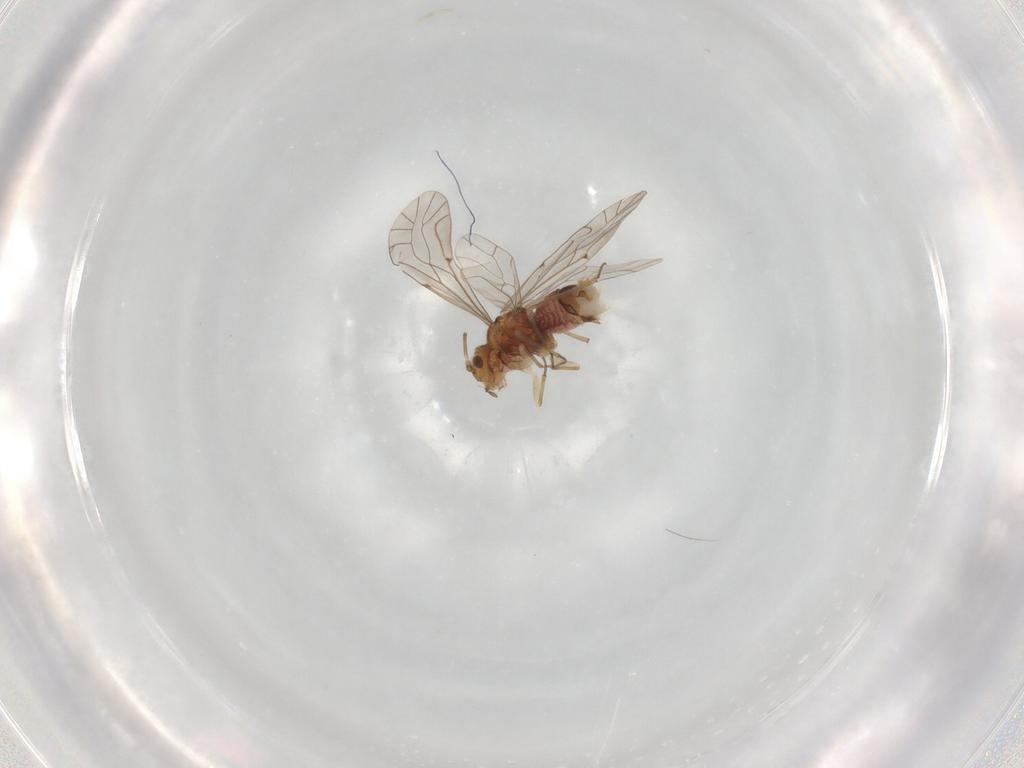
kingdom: Animalia
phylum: Arthropoda
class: Insecta
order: Psocodea
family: Lachesillidae
